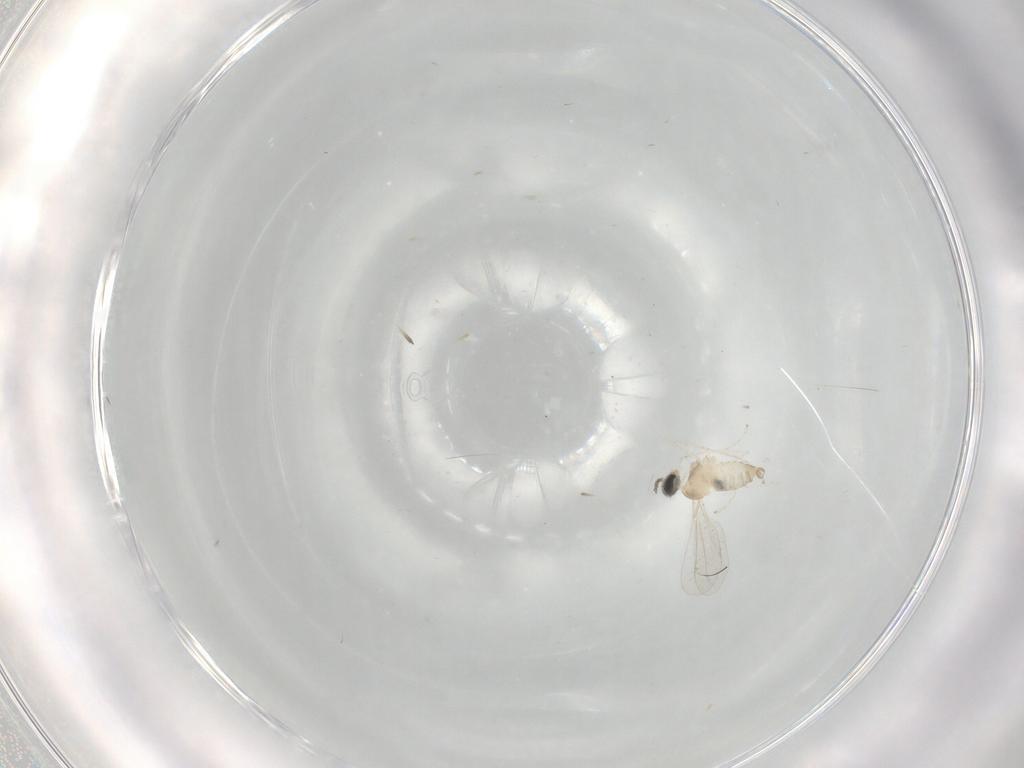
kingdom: Animalia
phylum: Arthropoda
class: Insecta
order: Diptera
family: Cecidomyiidae
